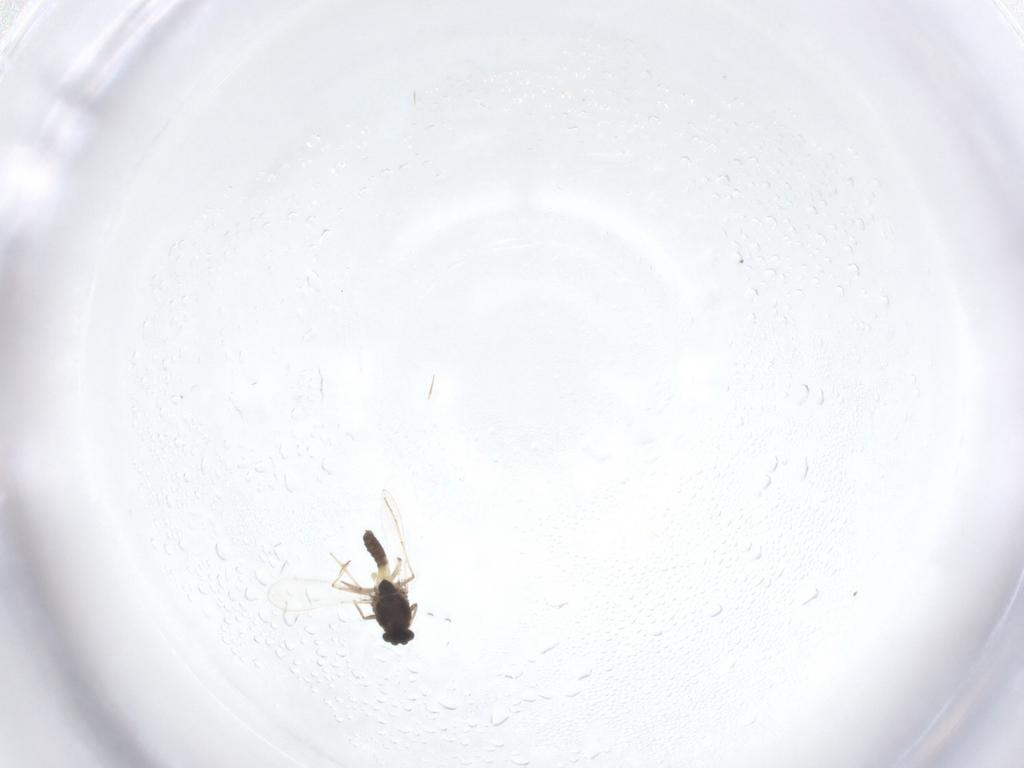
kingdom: Animalia
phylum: Arthropoda
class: Insecta
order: Diptera
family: Chironomidae
